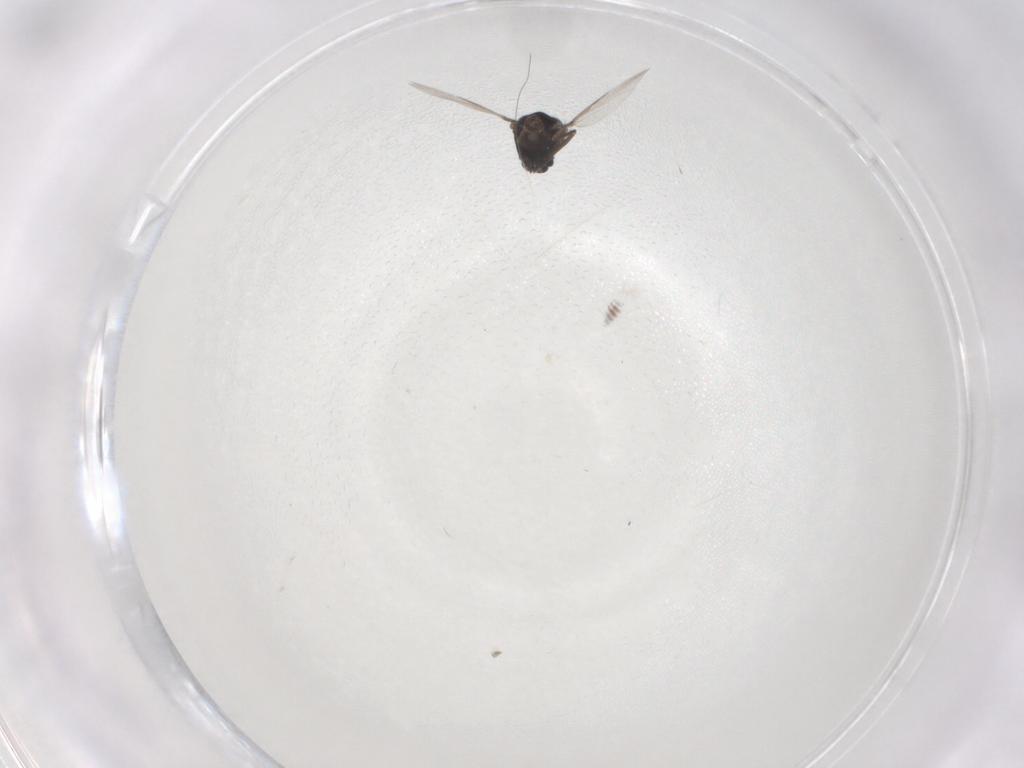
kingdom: Animalia
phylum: Arthropoda
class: Insecta
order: Diptera
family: Ceratopogonidae
